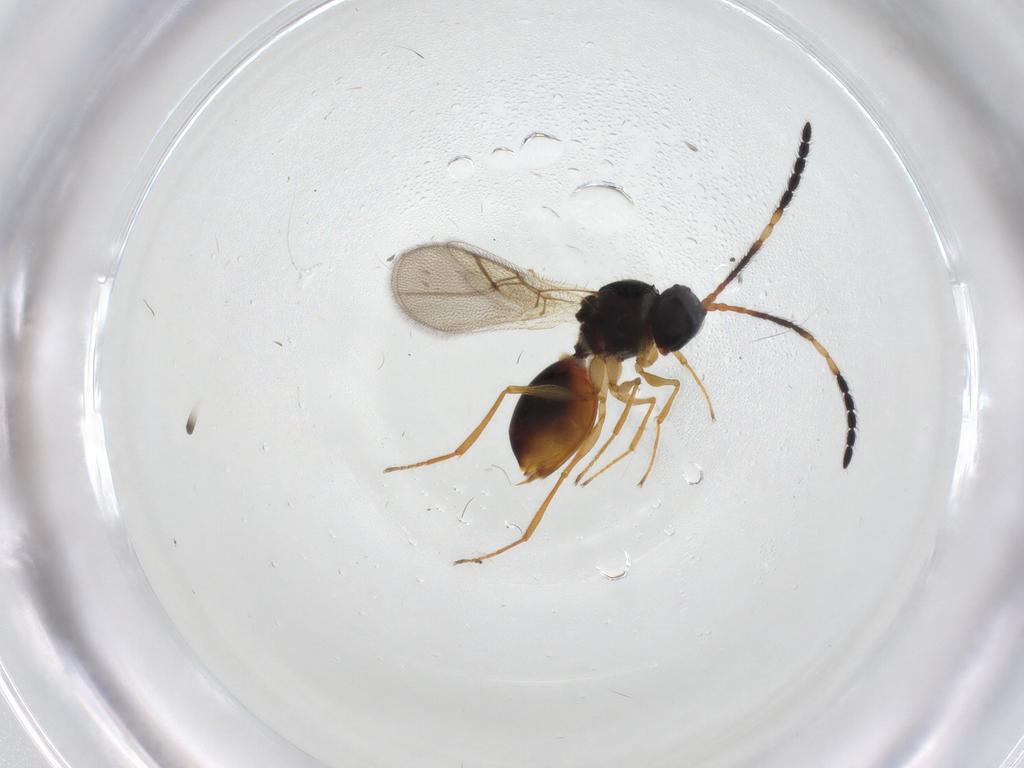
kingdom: Animalia
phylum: Arthropoda
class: Insecta
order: Hymenoptera
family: Figitidae
